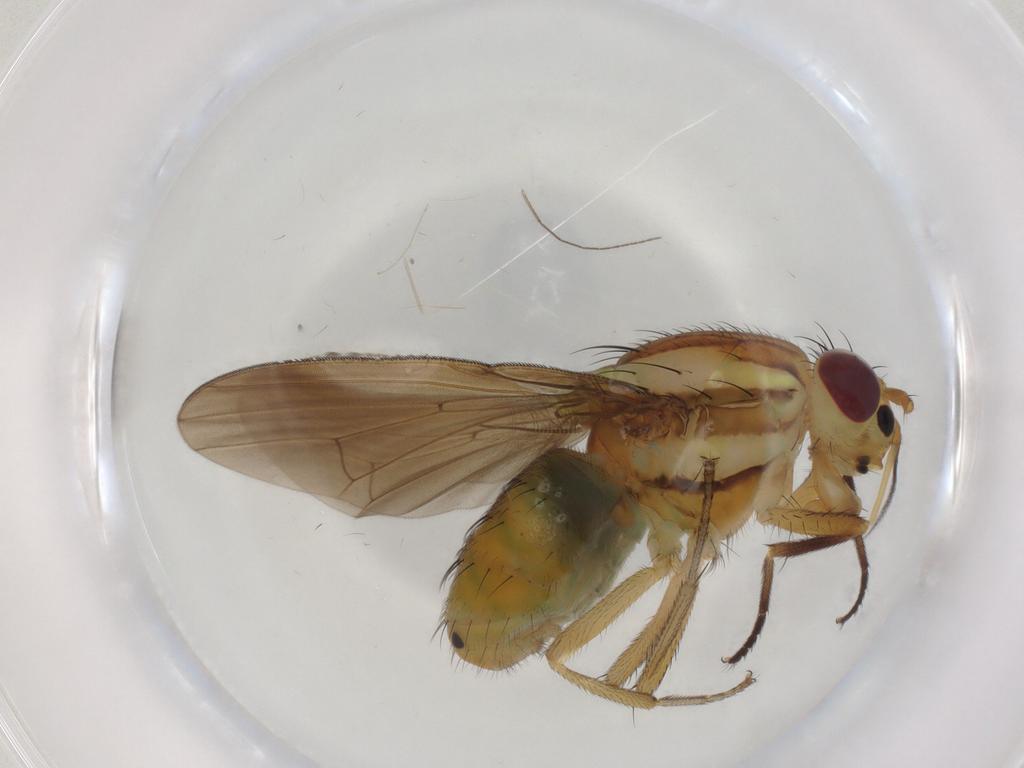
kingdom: Animalia
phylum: Arthropoda
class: Insecta
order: Diptera
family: Lauxaniidae
